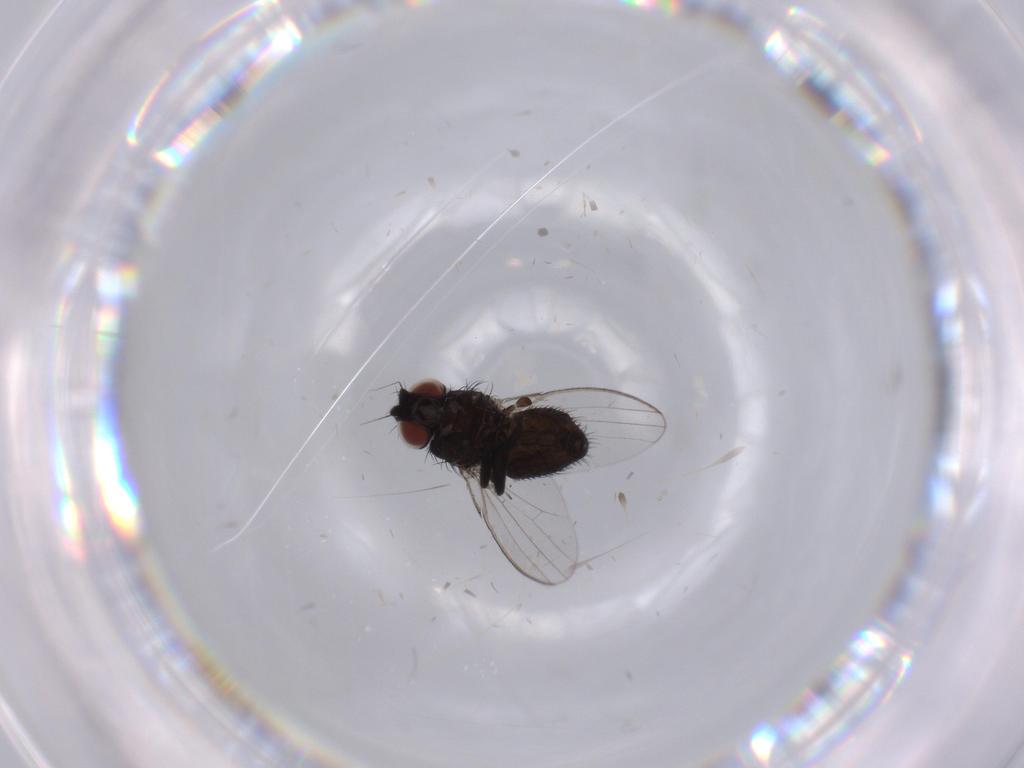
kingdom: Animalia
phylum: Arthropoda
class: Insecta
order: Diptera
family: Milichiidae
